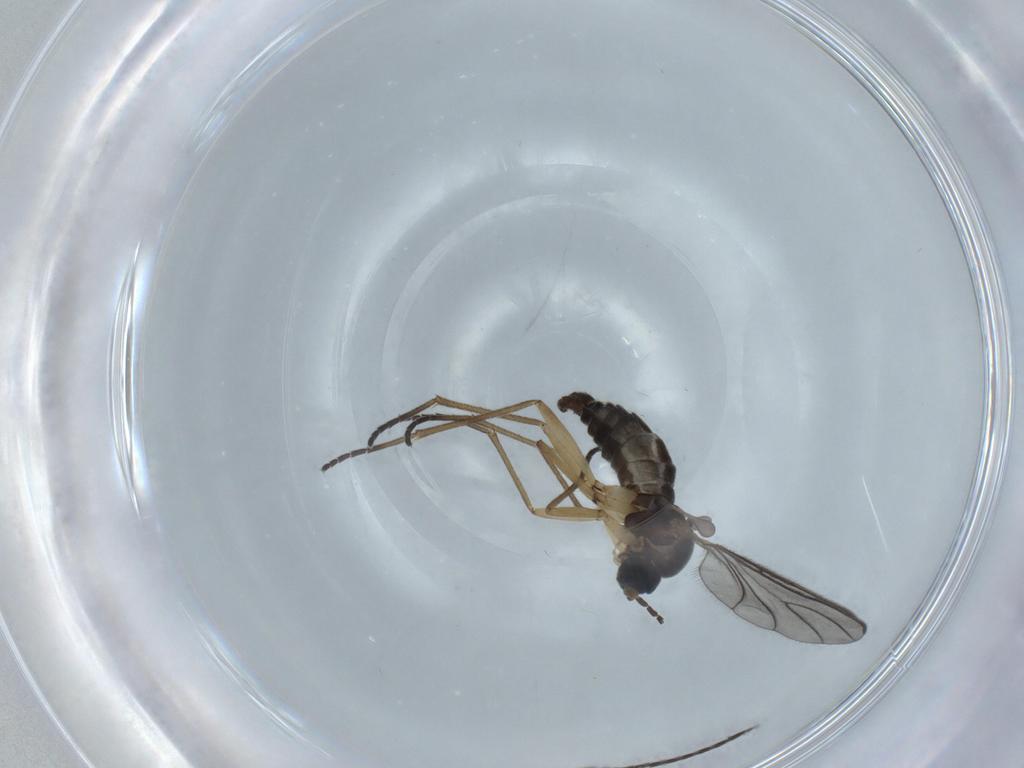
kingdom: Animalia
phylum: Arthropoda
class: Insecta
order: Diptera
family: Sciaridae
